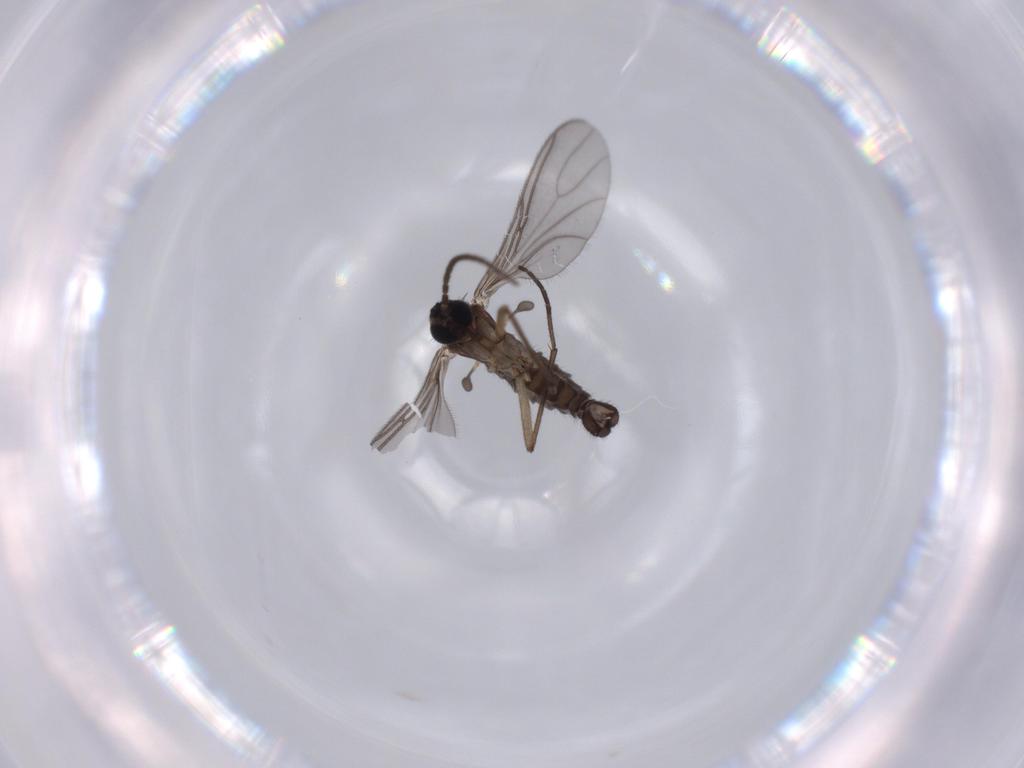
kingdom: Animalia
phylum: Arthropoda
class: Insecta
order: Diptera
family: Sciaridae
